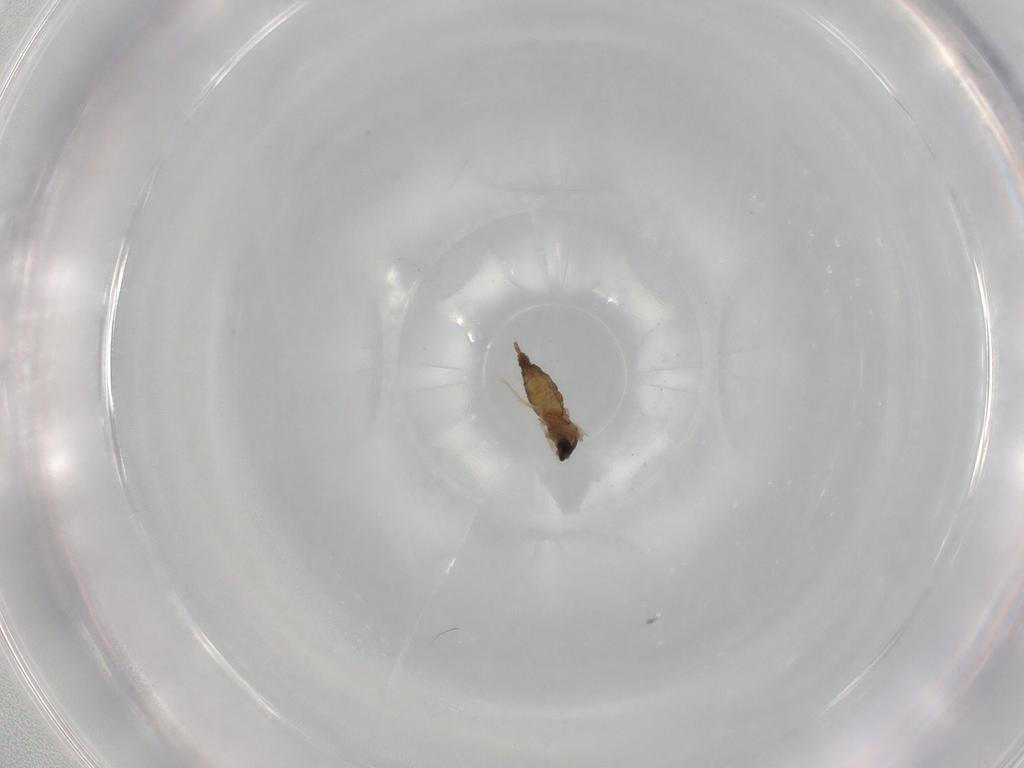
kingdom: Animalia
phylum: Arthropoda
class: Insecta
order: Diptera
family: Cecidomyiidae
